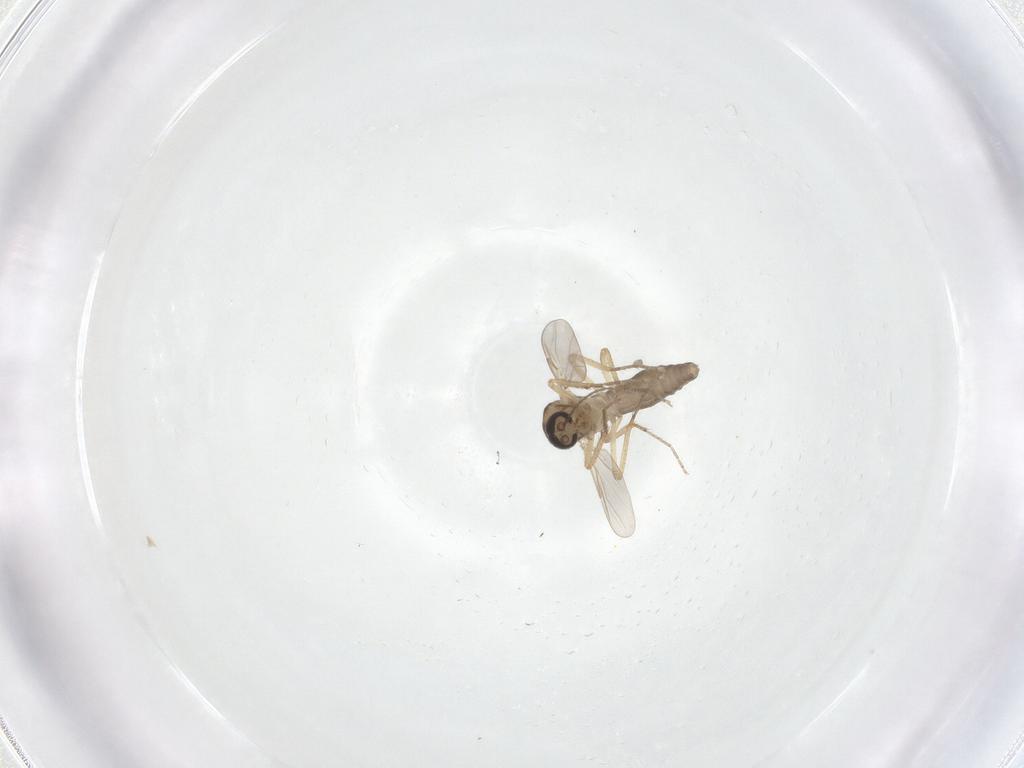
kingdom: Animalia
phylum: Arthropoda
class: Insecta
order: Diptera
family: Ceratopogonidae
